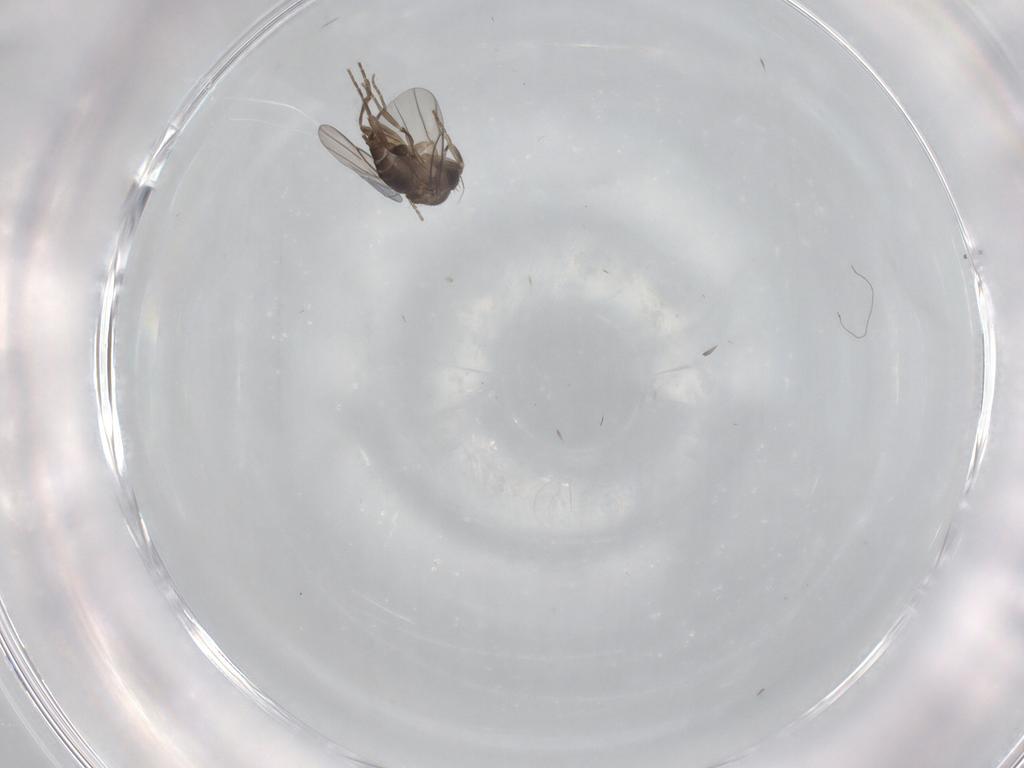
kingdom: Animalia
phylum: Arthropoda
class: Insecta
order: Diptera
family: Phoridae
